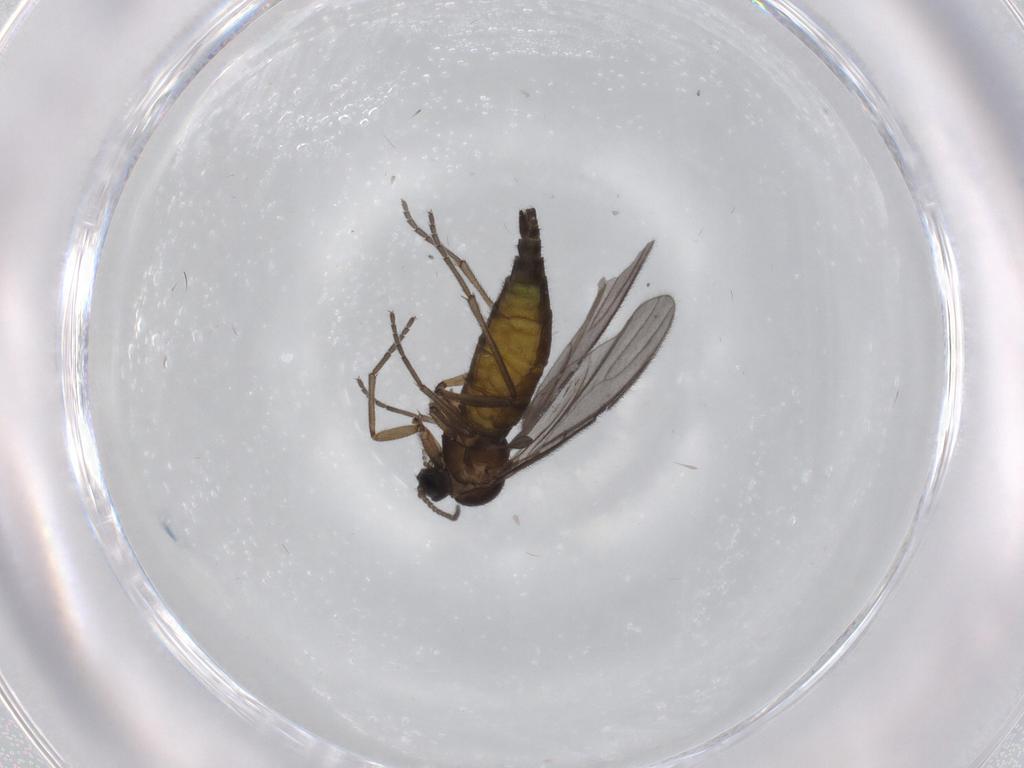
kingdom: Animalia
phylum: Arthropoda
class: Insecta
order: Diptera
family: Sciaridae
